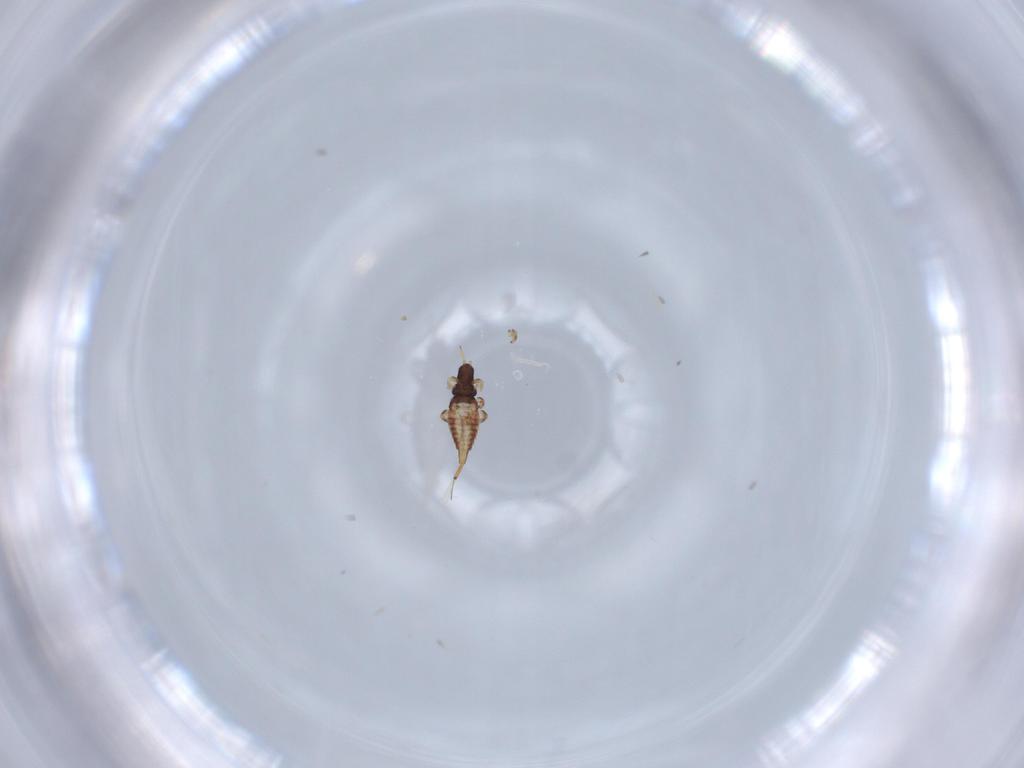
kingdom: Animalia
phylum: Arthropoda
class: Insecta
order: Thysanoptera
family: Phlaeothripidae
